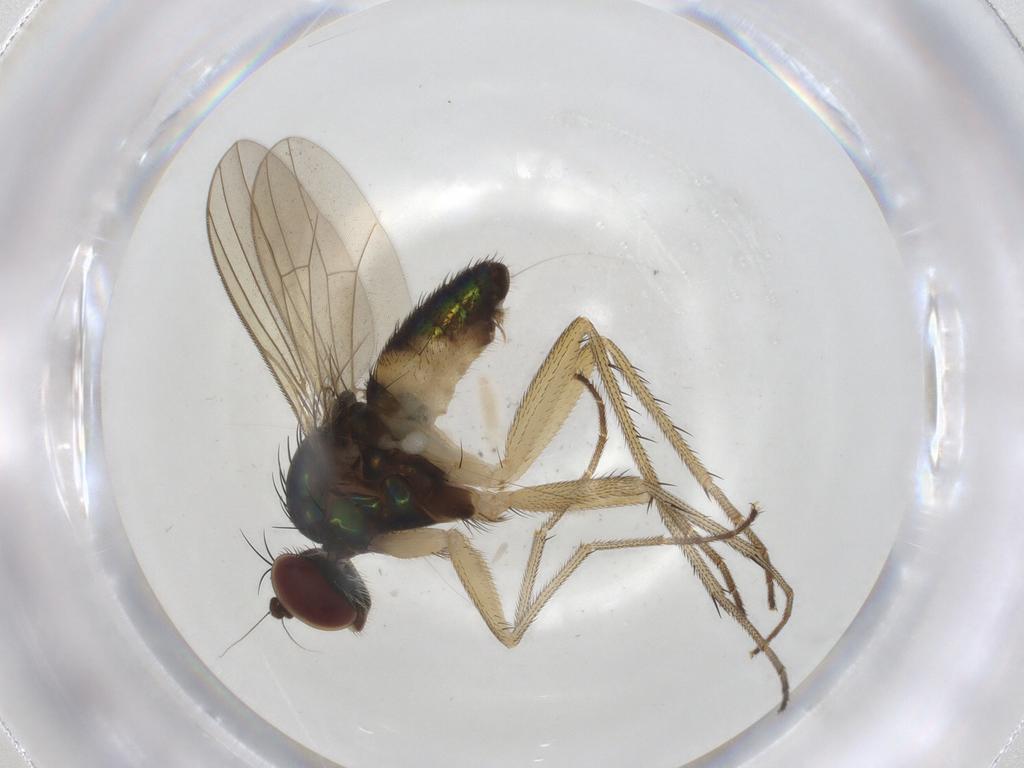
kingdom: Animalia
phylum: Arthropoda
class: Insecta
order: Diptera
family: Dolichopodidae
